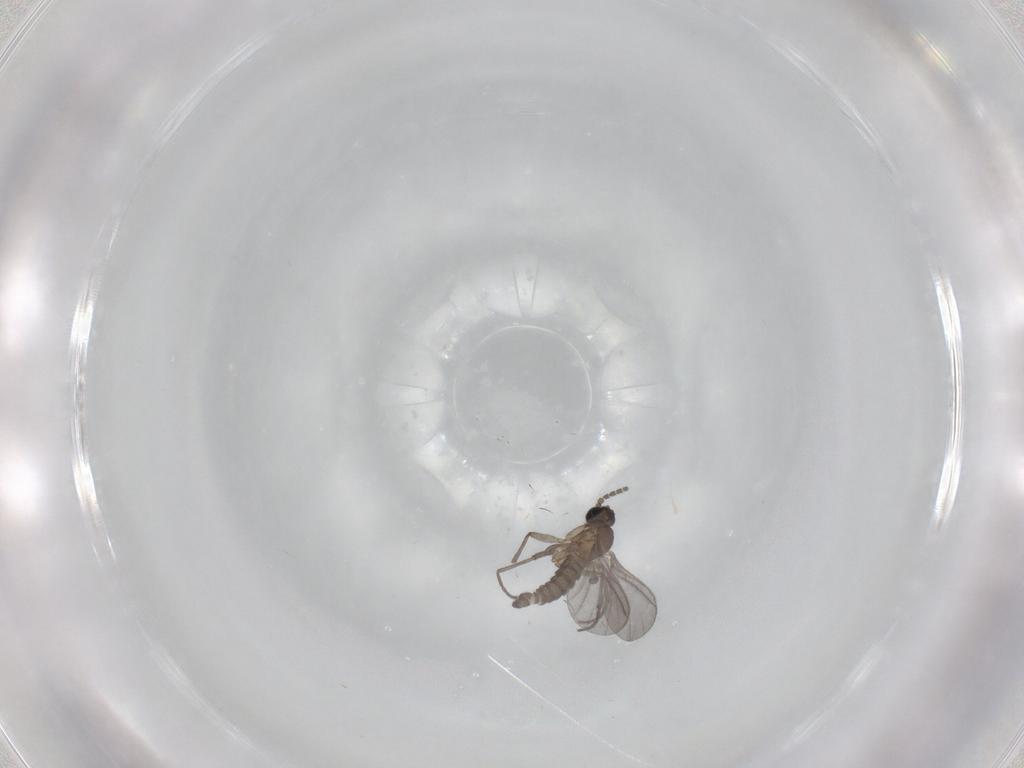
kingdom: Animalia
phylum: Arthropoda
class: Insecta
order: Diptera
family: Sciaridae
